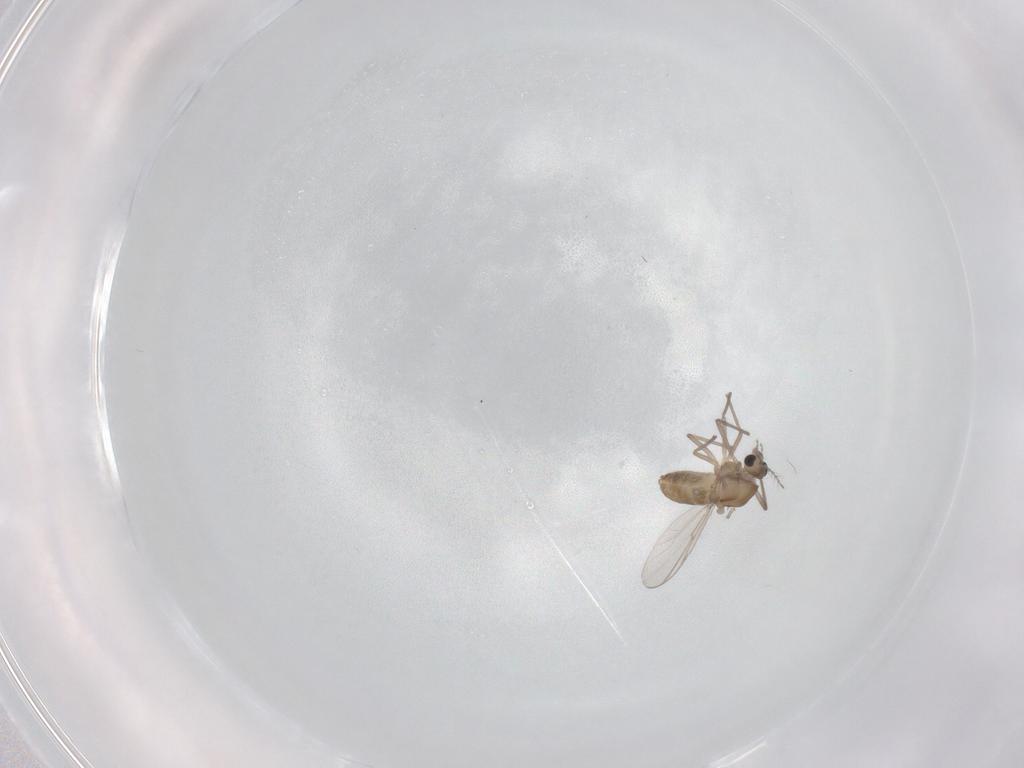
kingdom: Animalia
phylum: Arthropoda
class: Insecta
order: Diptera
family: Chironomidae
